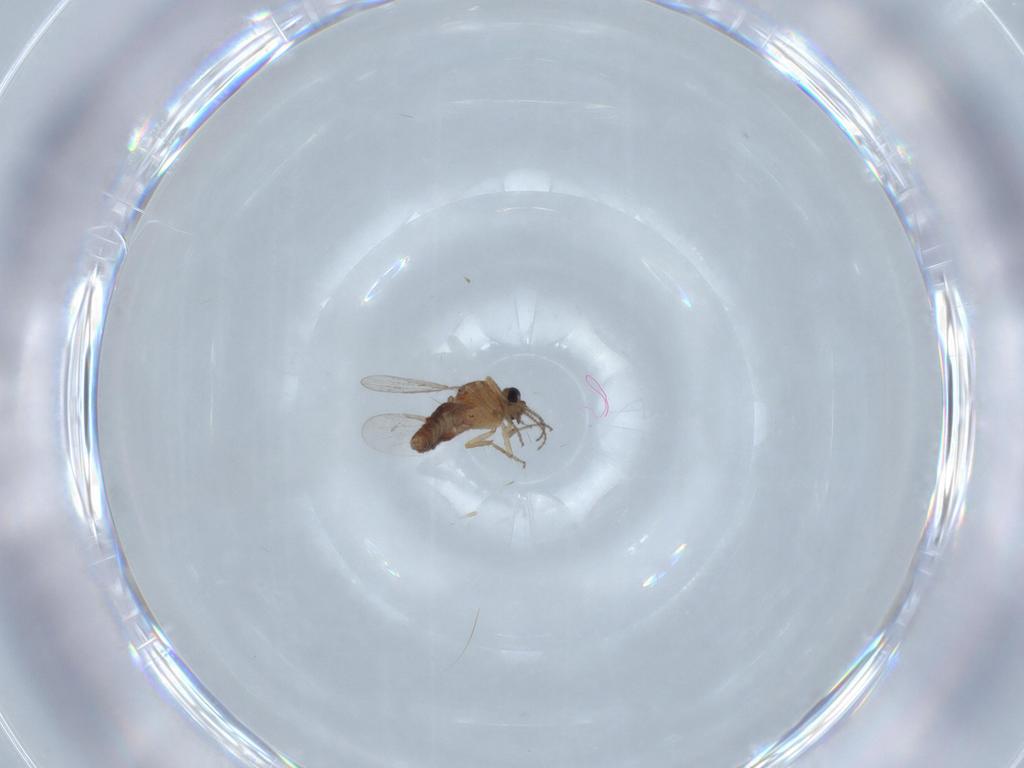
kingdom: Animalia
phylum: Arthropoda
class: Insecta
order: Diptera
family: Ceratopogonidae
